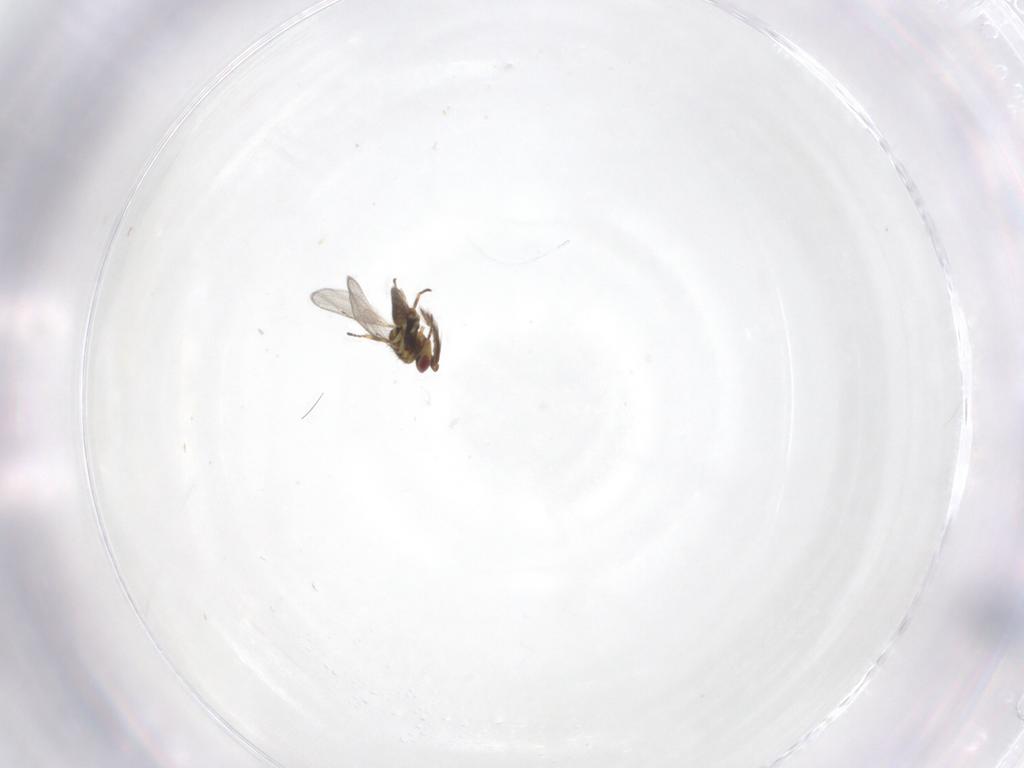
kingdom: Animalia
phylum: Arthropoda
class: Insecta
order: Hymenoptera
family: Eulophidae
